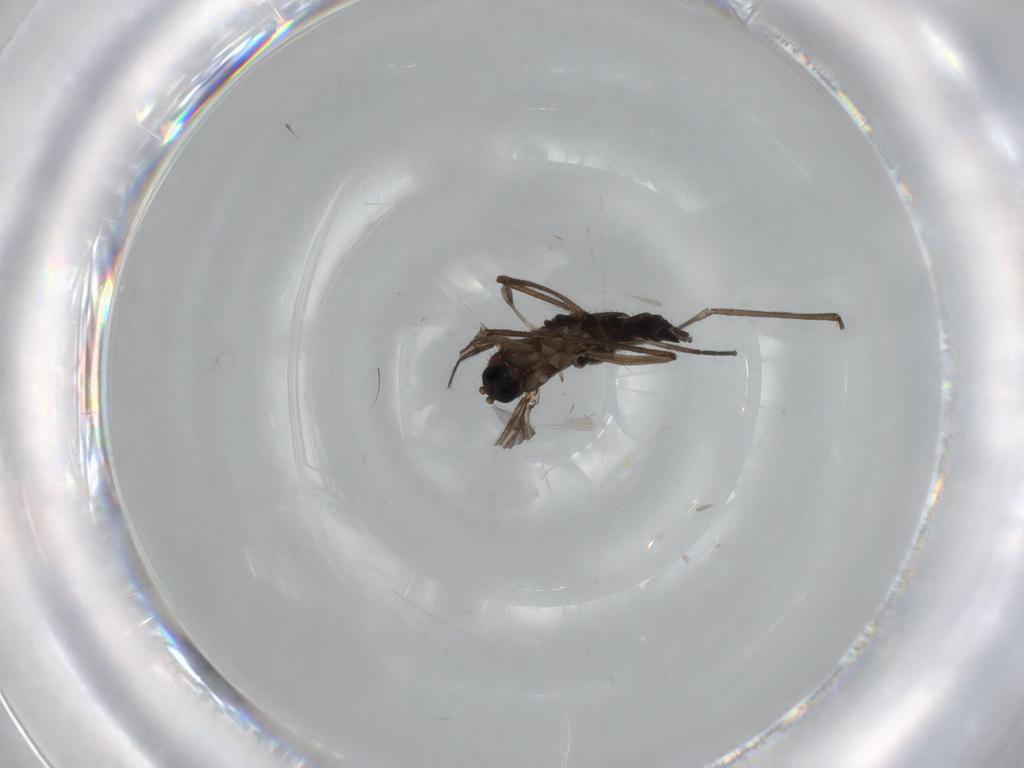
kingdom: Animalia
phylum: Arthropoda
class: Insecta
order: Diptera
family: Sciaridae
